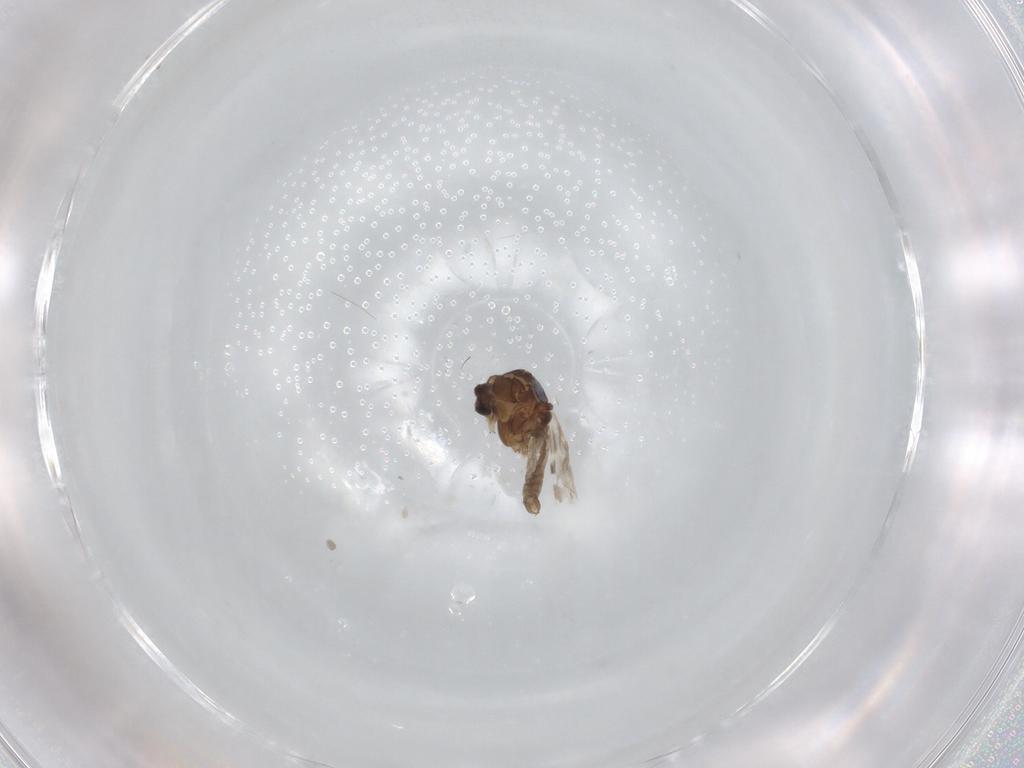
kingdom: Animalia
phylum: Arthropoda
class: Insecta
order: Diptera
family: Ceratopogonidae
